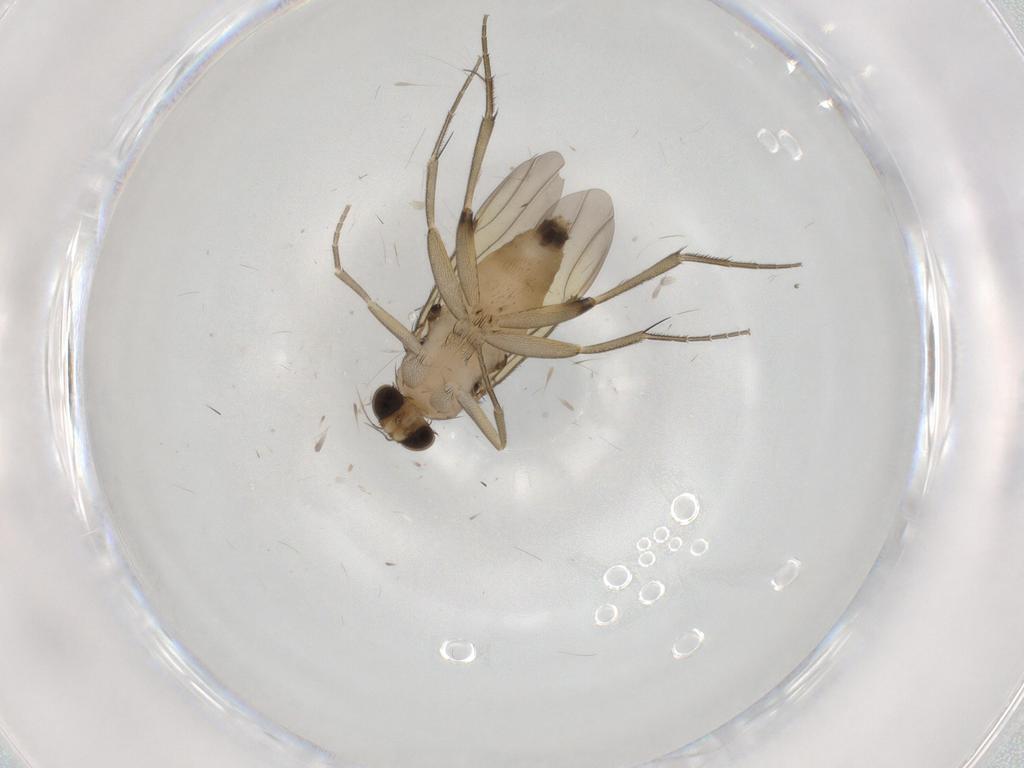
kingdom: Animalia
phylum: Arthropoda
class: Insecta
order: Diptera
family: Phoridae
